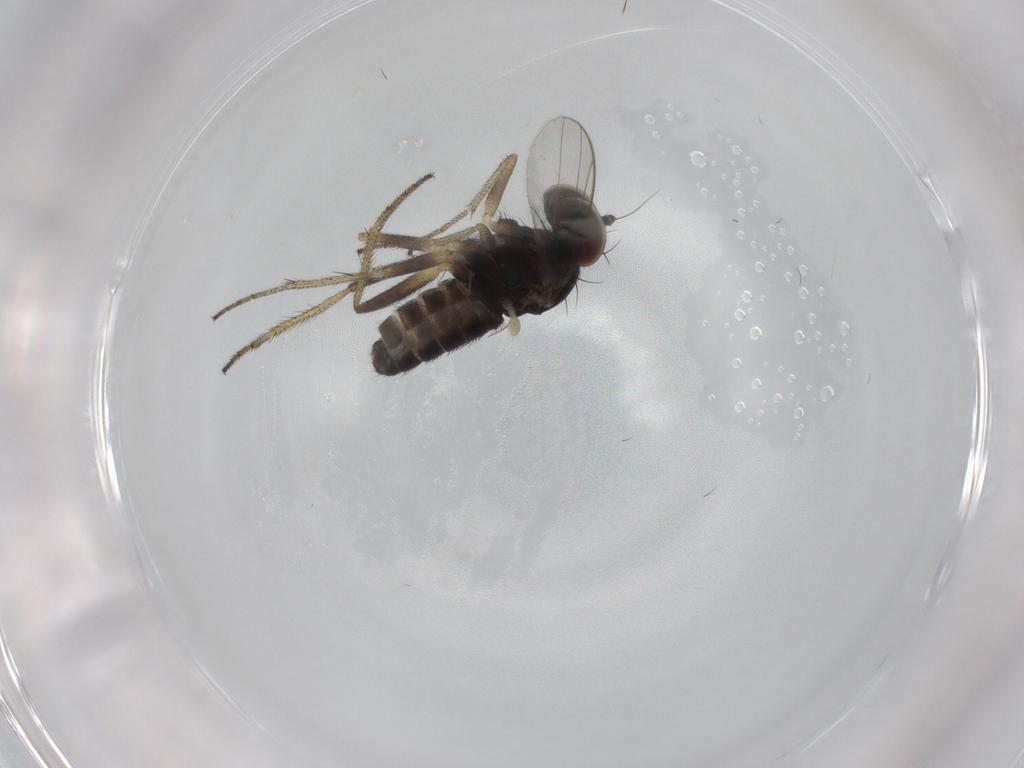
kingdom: Animalia
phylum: Arthropoda
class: Insecta
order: Diptera
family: Dolichopodidae
